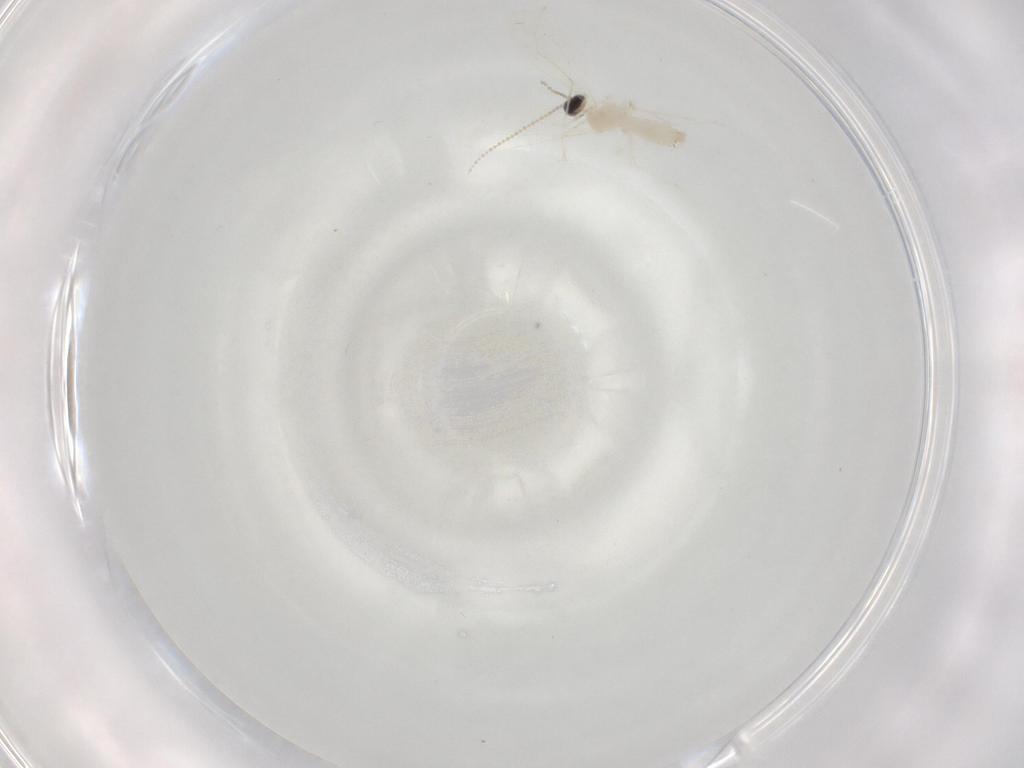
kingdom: Animalia
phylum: Arthropoda
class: Insecta
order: Diptera
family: Cecidomyiidae
